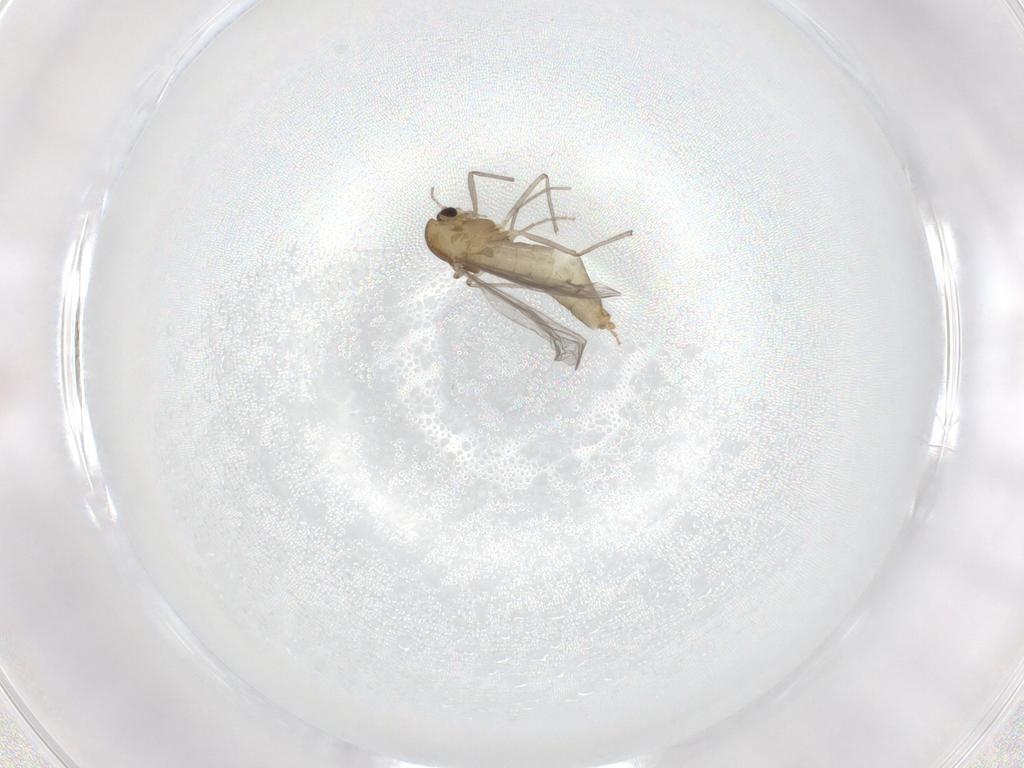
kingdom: Animalia
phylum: Arthropoda
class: Insecta
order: Diptera
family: Chironomidae
